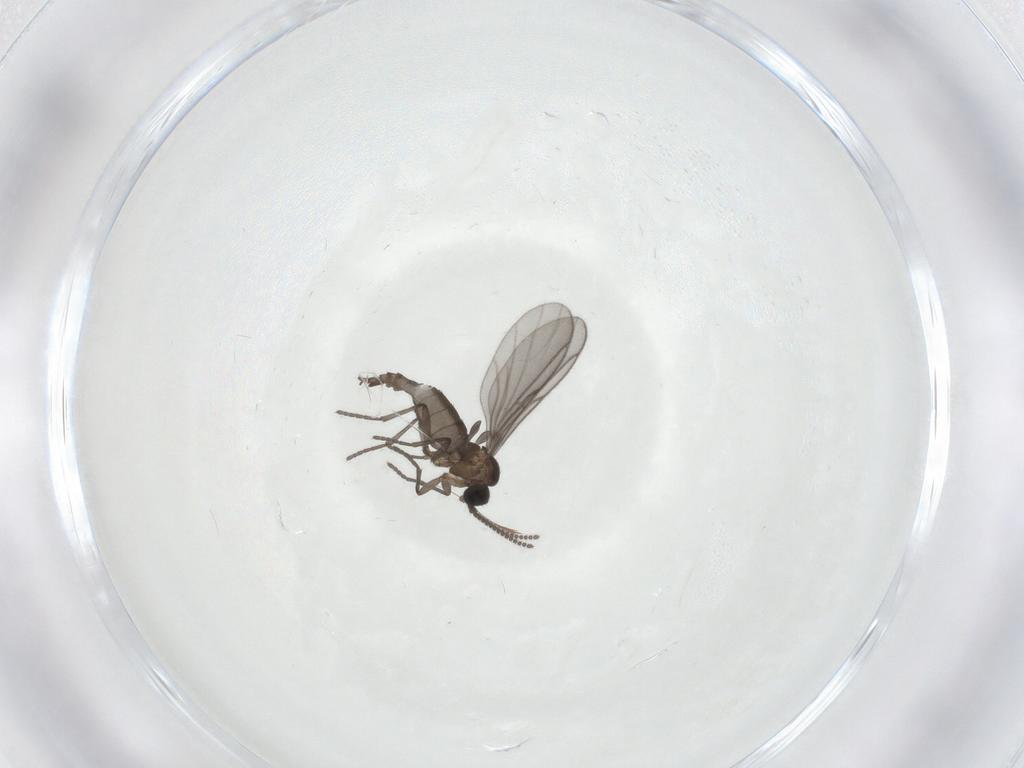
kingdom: Animalia
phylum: Arthropoda
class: Insecta
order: Diptera
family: Sciaridae
